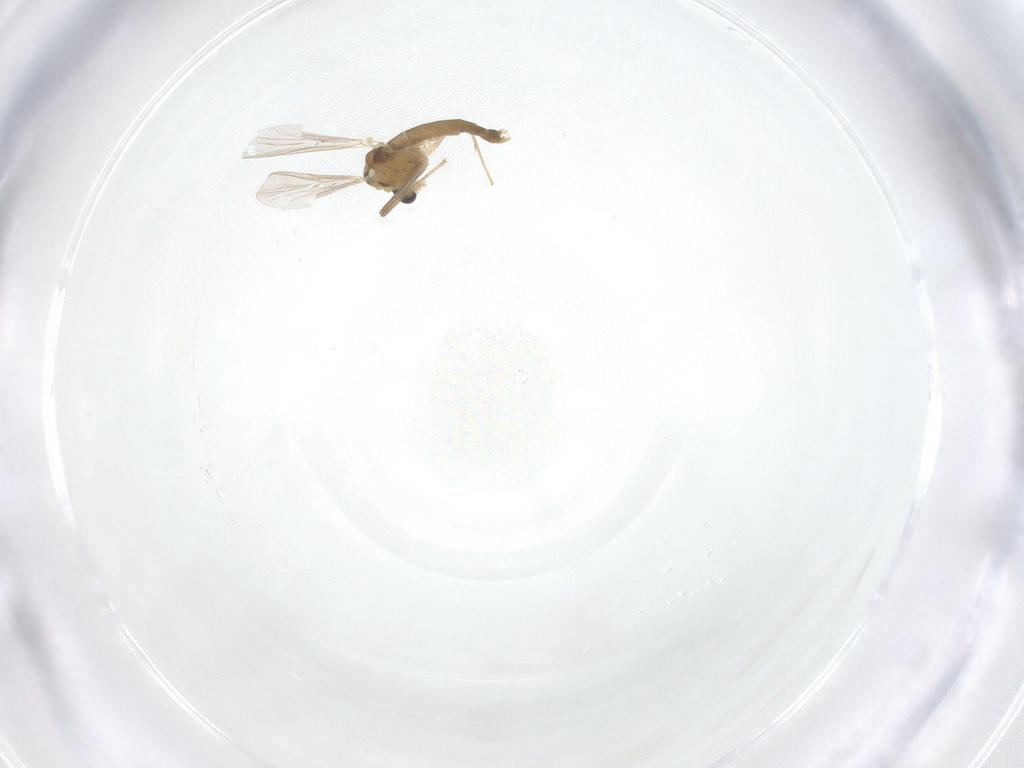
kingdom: Animalia
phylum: Arthropoda
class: Insecta
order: Diptera
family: Chironomidae
